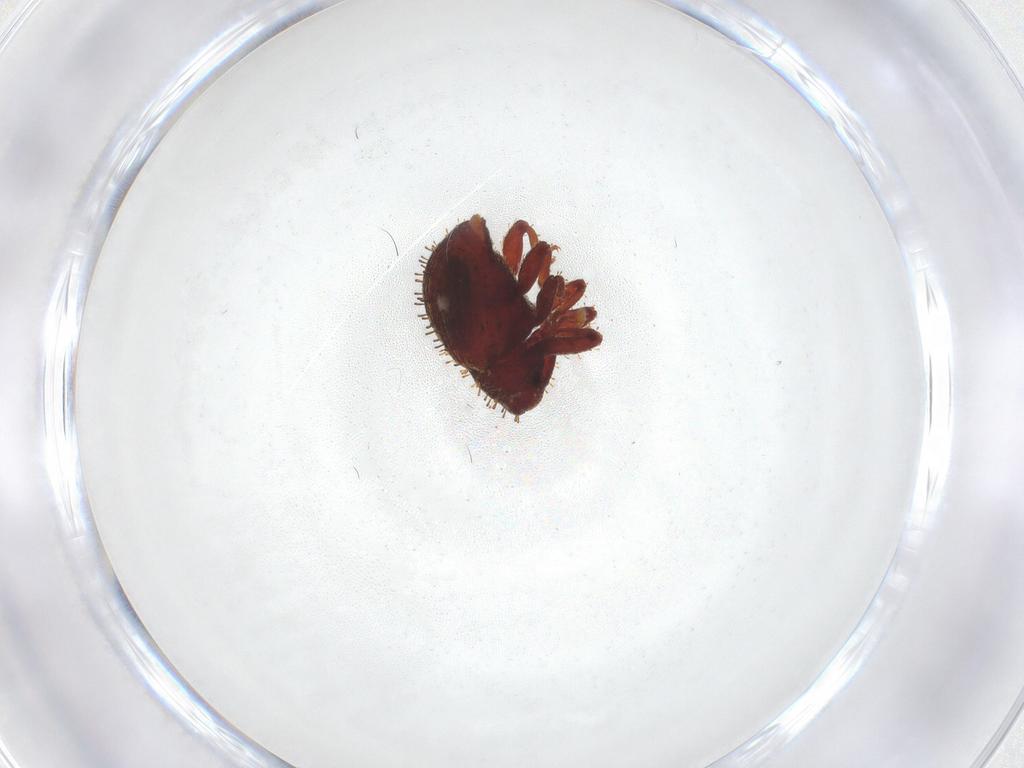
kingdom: Animalia
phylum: Arthropoda
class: Insecta
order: Coleoptera
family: Curculionidae
